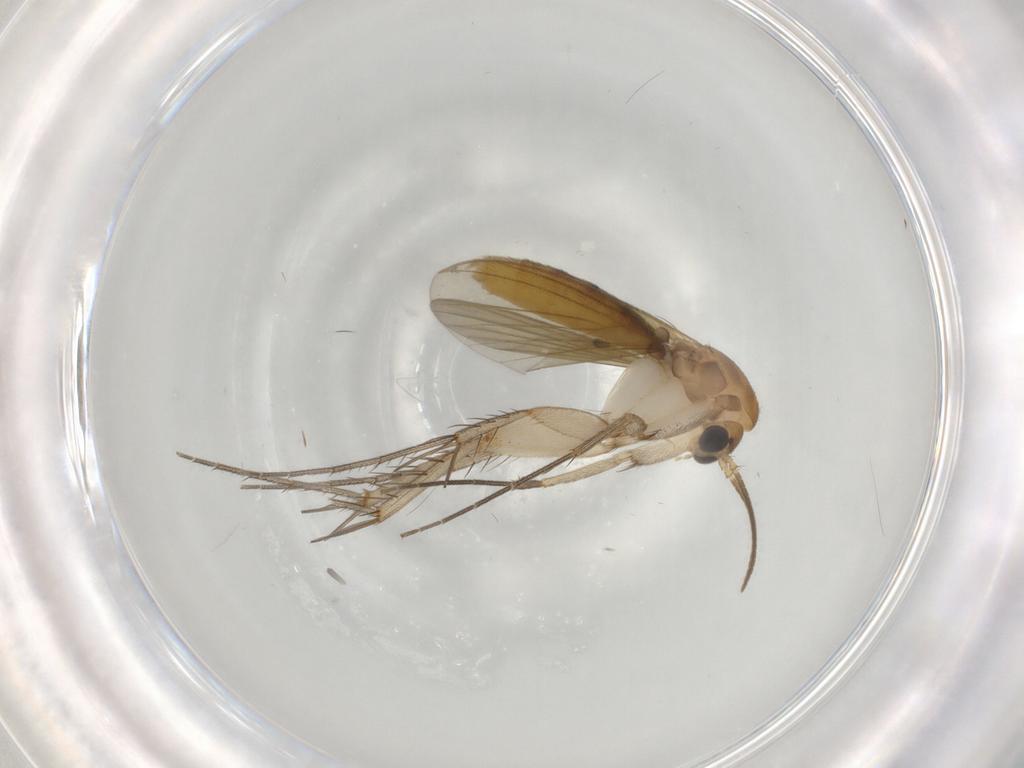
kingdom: Animalia
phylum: Arthropoda
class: Insecta
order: Diptera
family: Mycetophilidae
